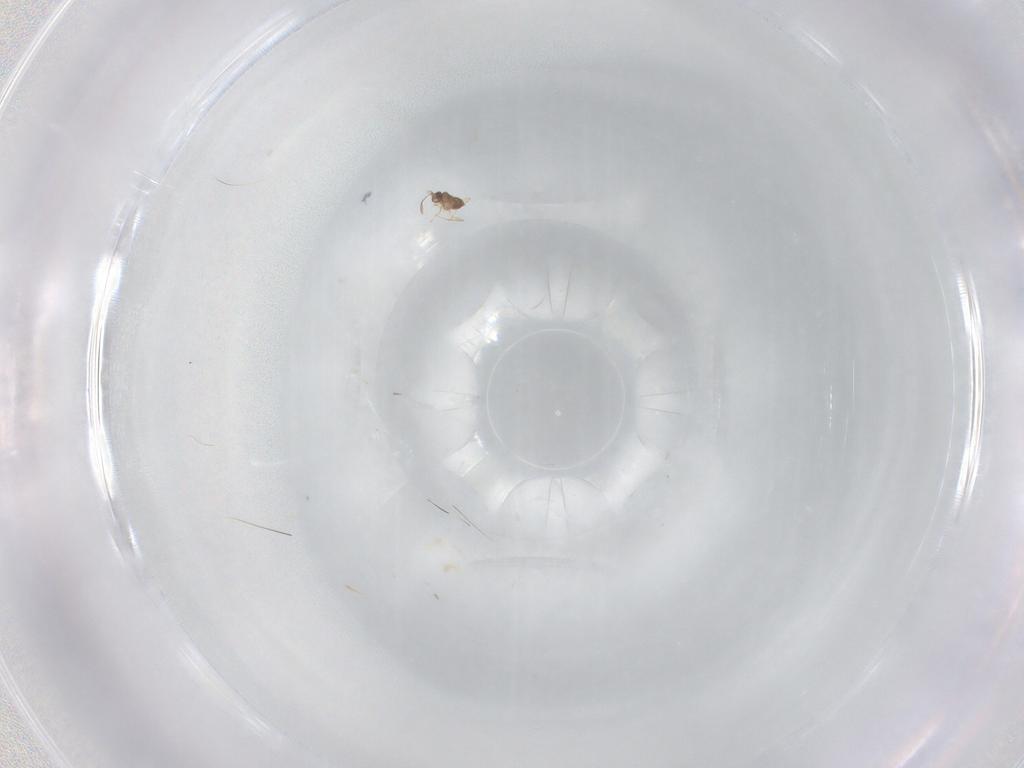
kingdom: Animalia
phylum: Arthropoda
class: Insecta
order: Hymenoptera
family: Mymaridae
